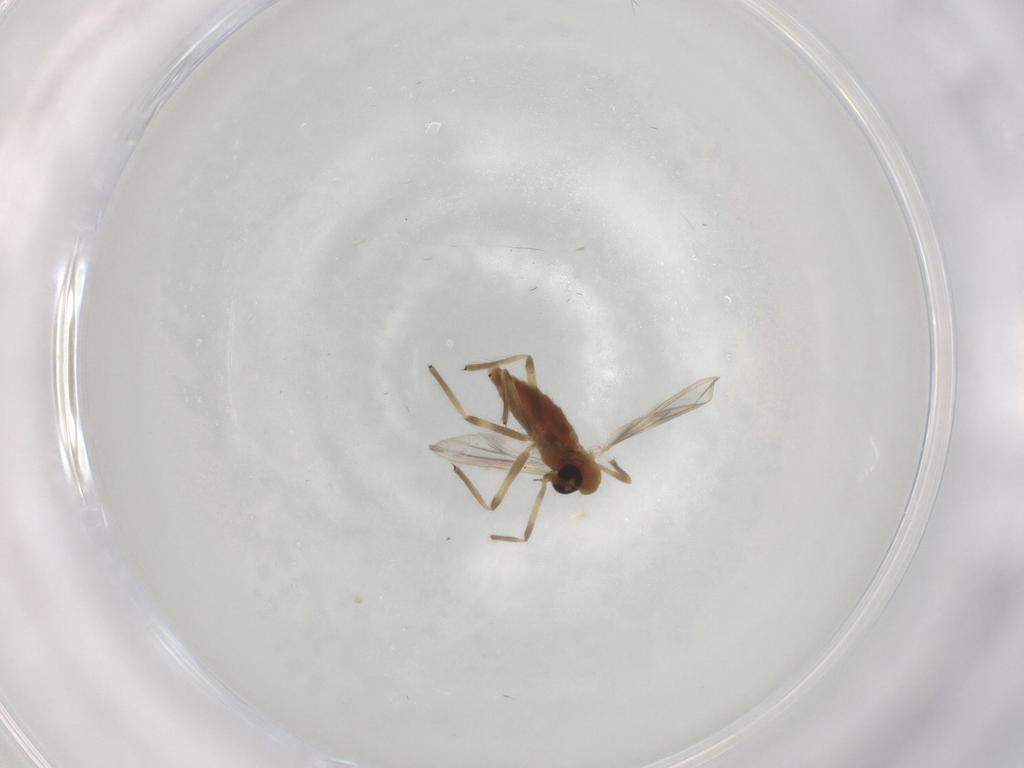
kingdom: Animalia
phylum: Arthropoda
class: Insecta
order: Diptera
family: Chironomidae
